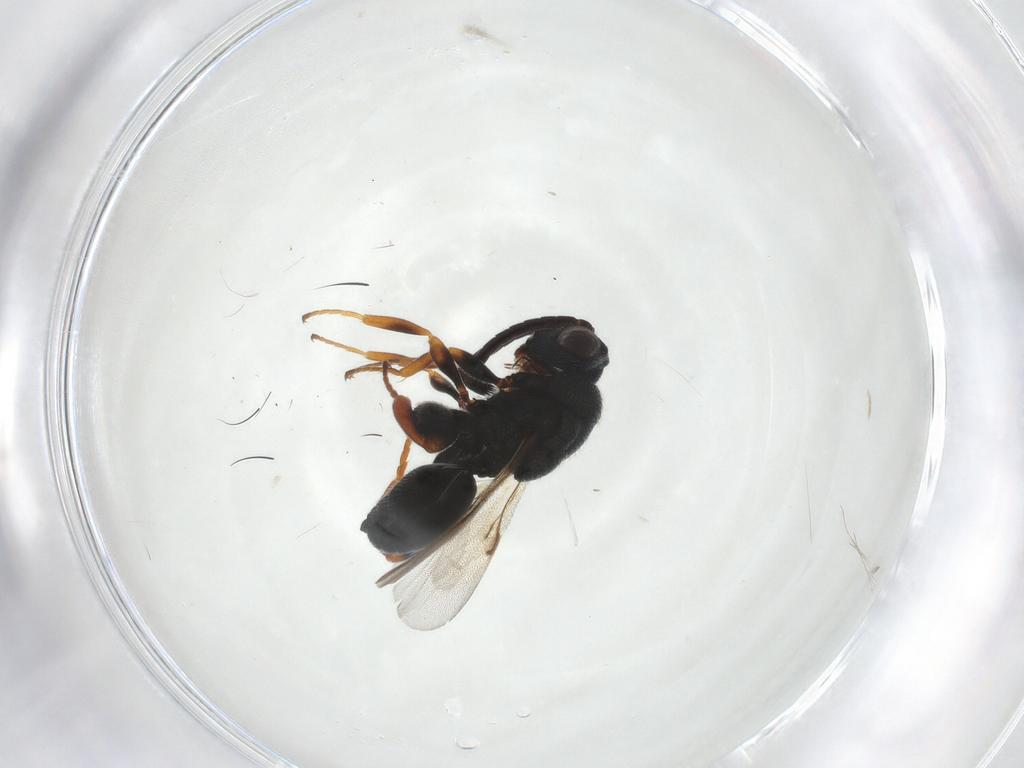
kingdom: Animalia
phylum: Arthropoda
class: Insecta
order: Hymenoptera
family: Chalcididae
